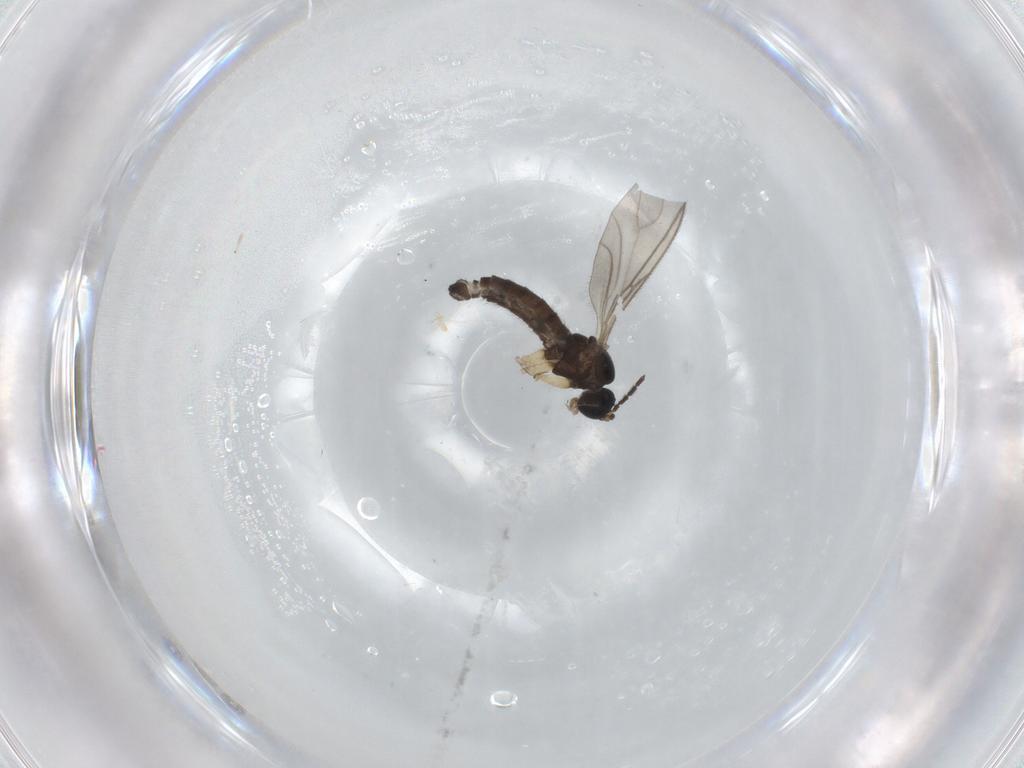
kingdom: Animalia
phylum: Arthropoda
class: Insecta
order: Diptera
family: Sciaridae
